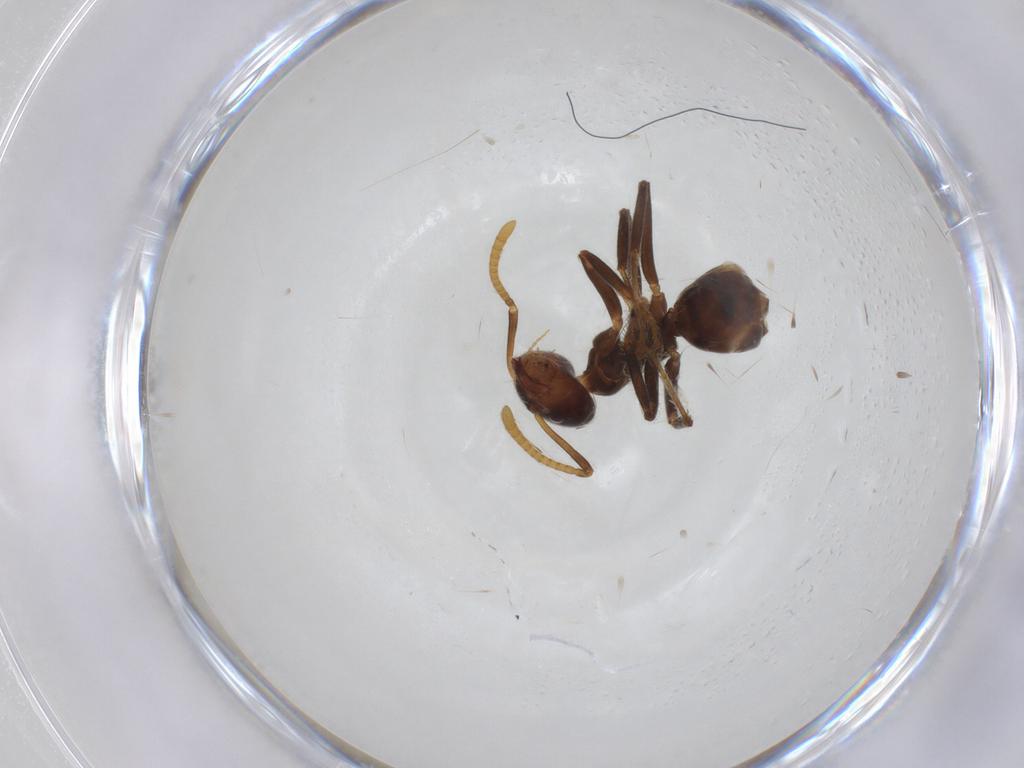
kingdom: Animalia
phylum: Arthropoda
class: Insecta
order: Hymenoptera
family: Formicidae
